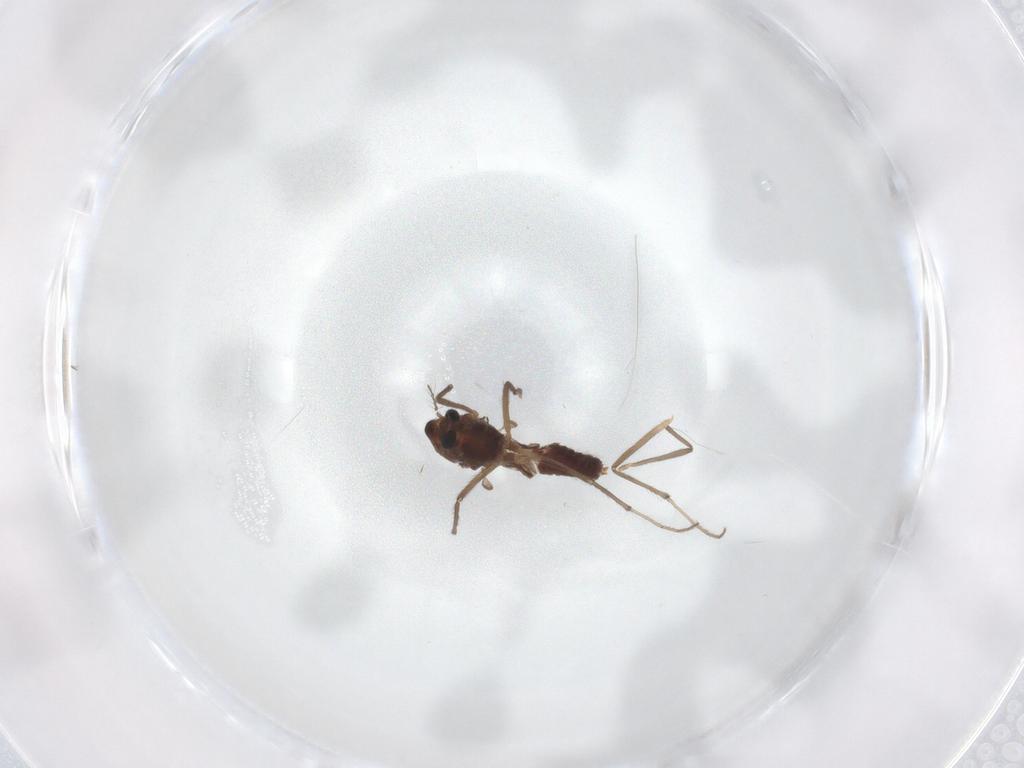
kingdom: Animalia
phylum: Arthropoda
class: Insecta
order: Diptera
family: Chironomidae
